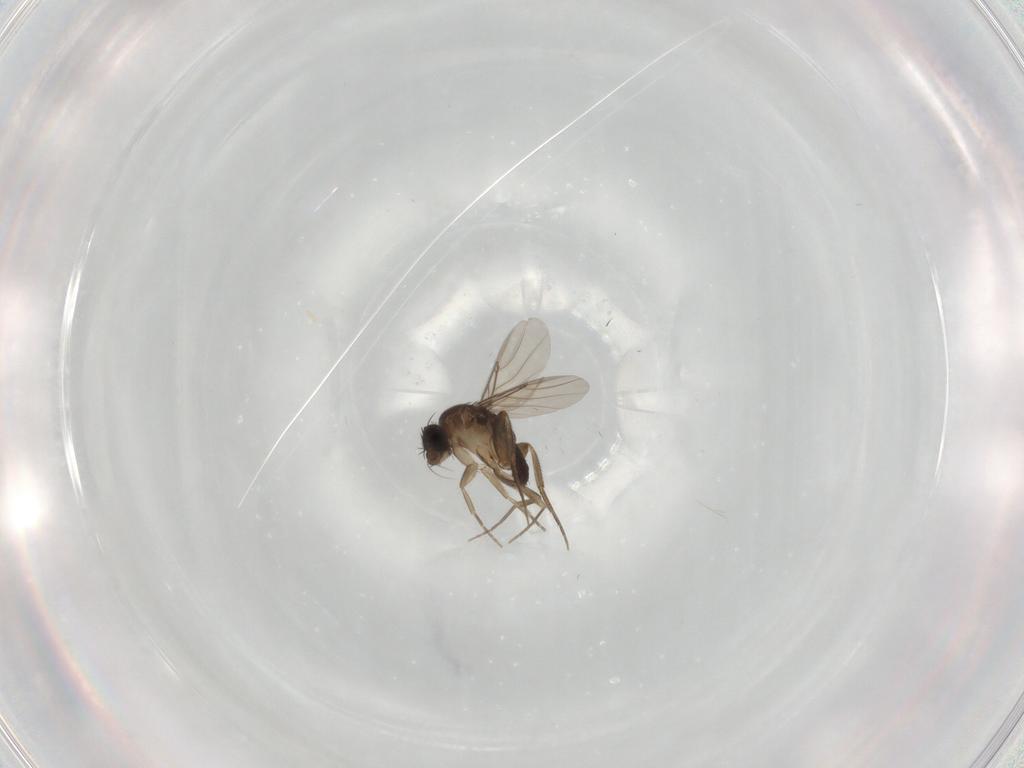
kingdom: Animalia
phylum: Arthropoda
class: Insecta
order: Diptera
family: Phoridae
